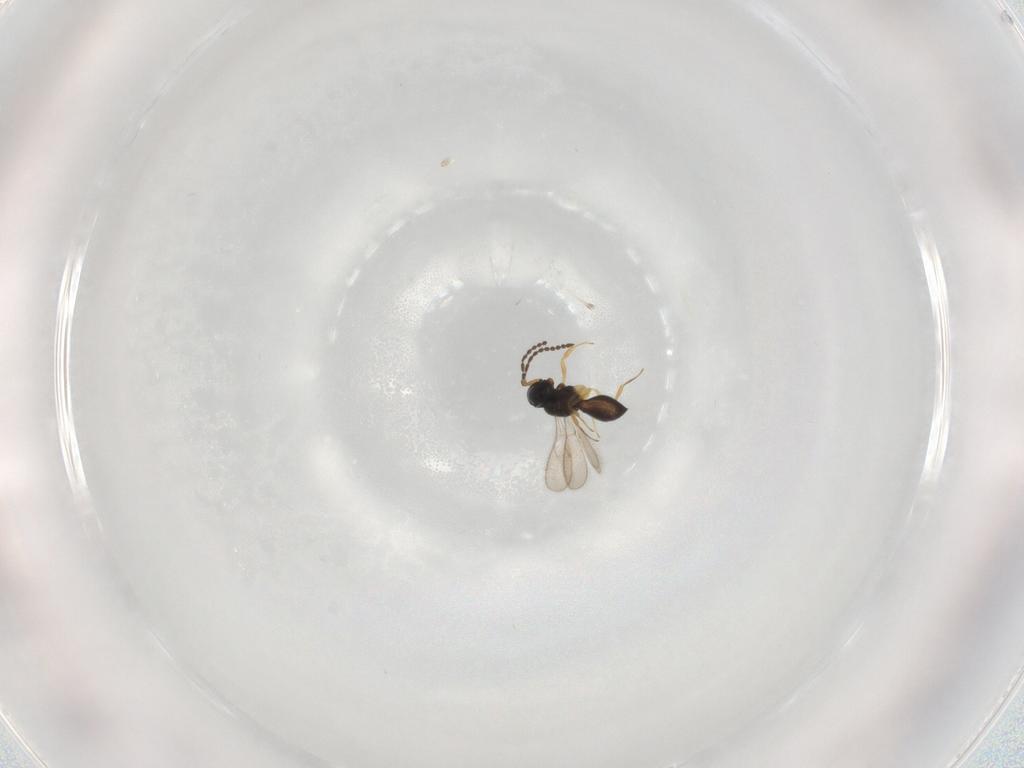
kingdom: Animalia
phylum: Arthropoda
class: Insecta
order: Hymenoptera
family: Scelionidae
